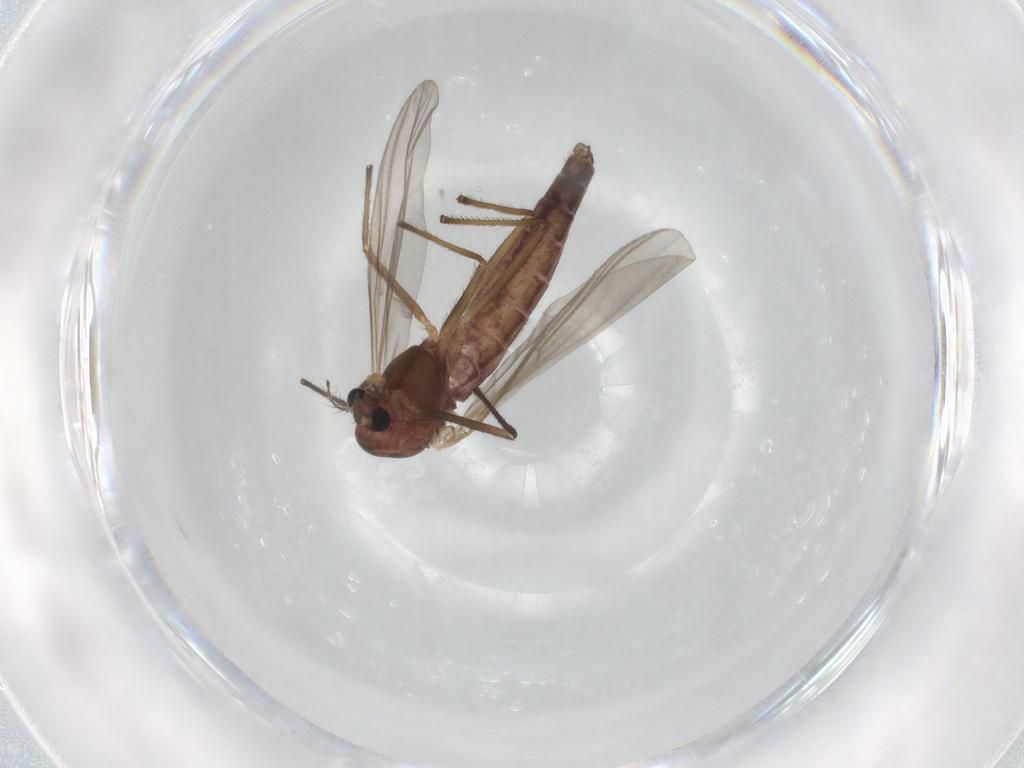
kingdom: Animalia
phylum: Arthropoda
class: Insecta
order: Diptera
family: Chironomidae
